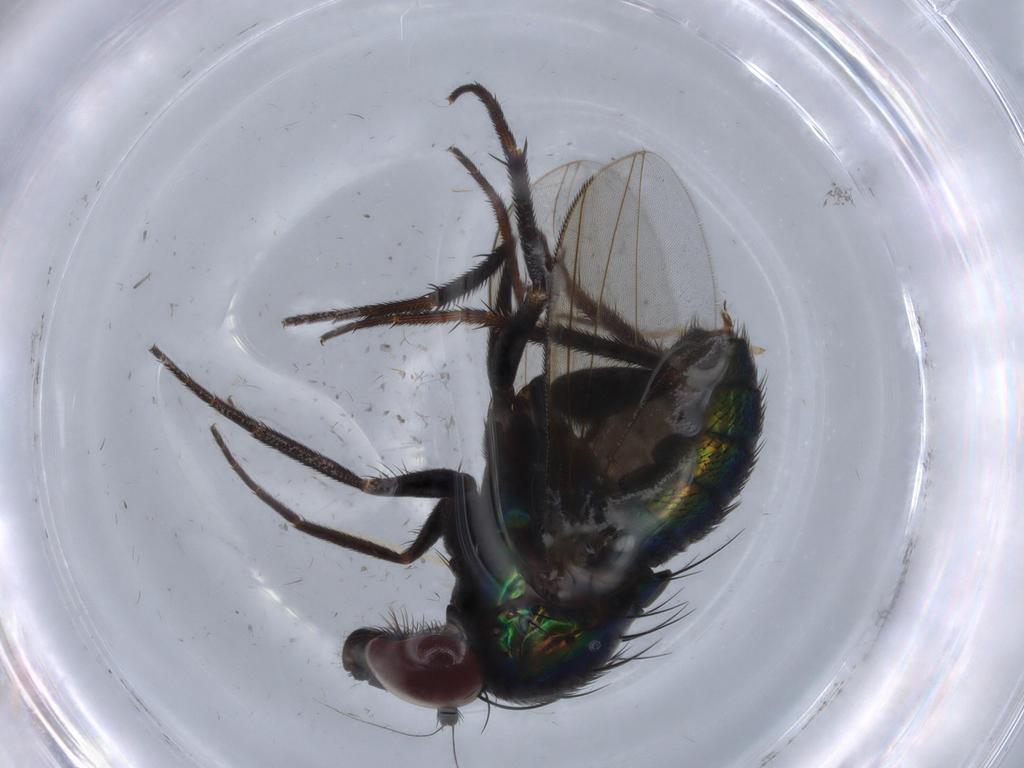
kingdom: Animalia
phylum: Arthropoda
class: Insecta
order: Diptera
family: Dolichopodidae
